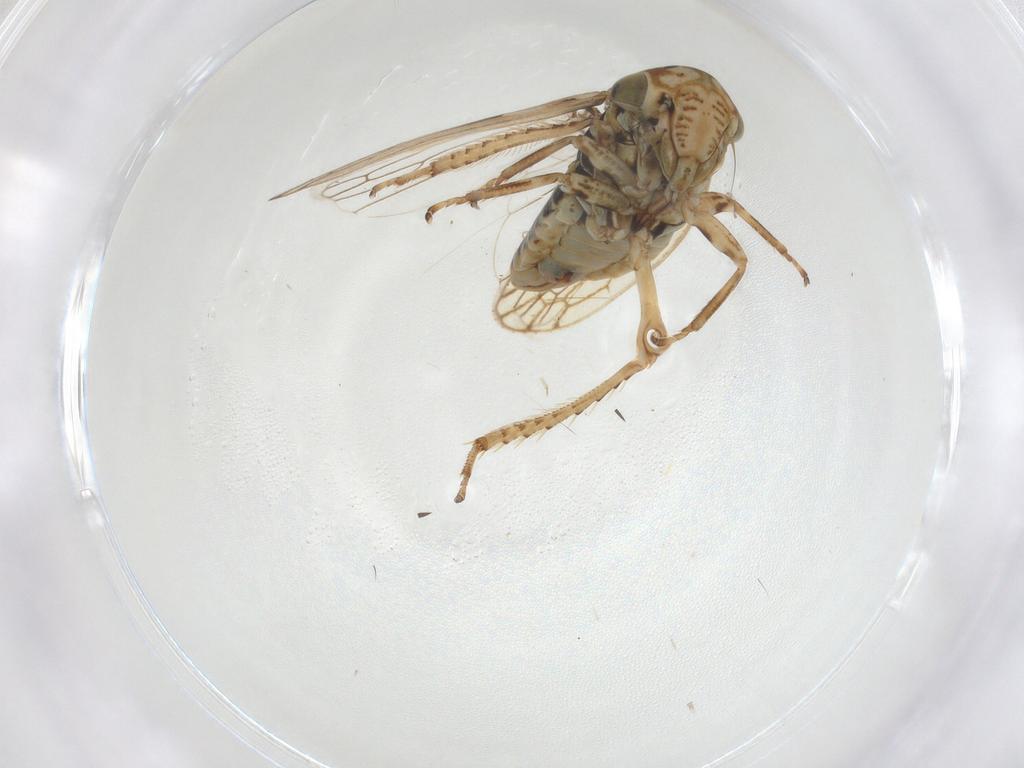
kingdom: Animalia
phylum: Arthropoda
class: Insecta
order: Hemiptera
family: Cicadellidae
